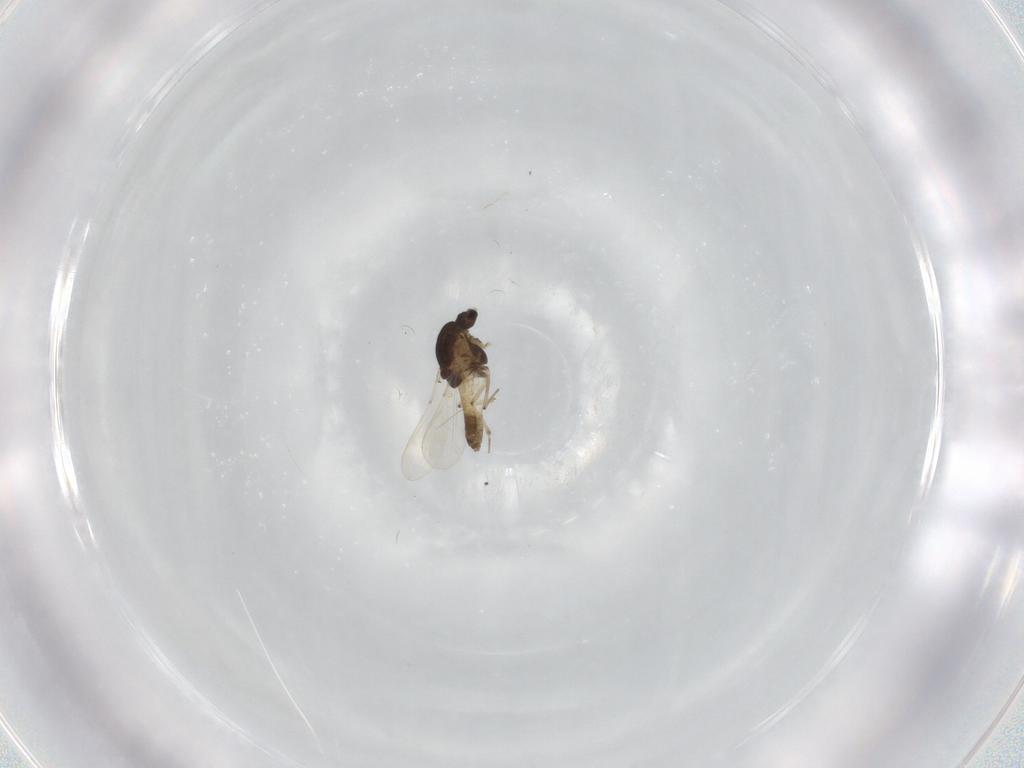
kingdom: Animalia
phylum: Arthropoda
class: Insecta
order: Diptera
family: Chironomidae
